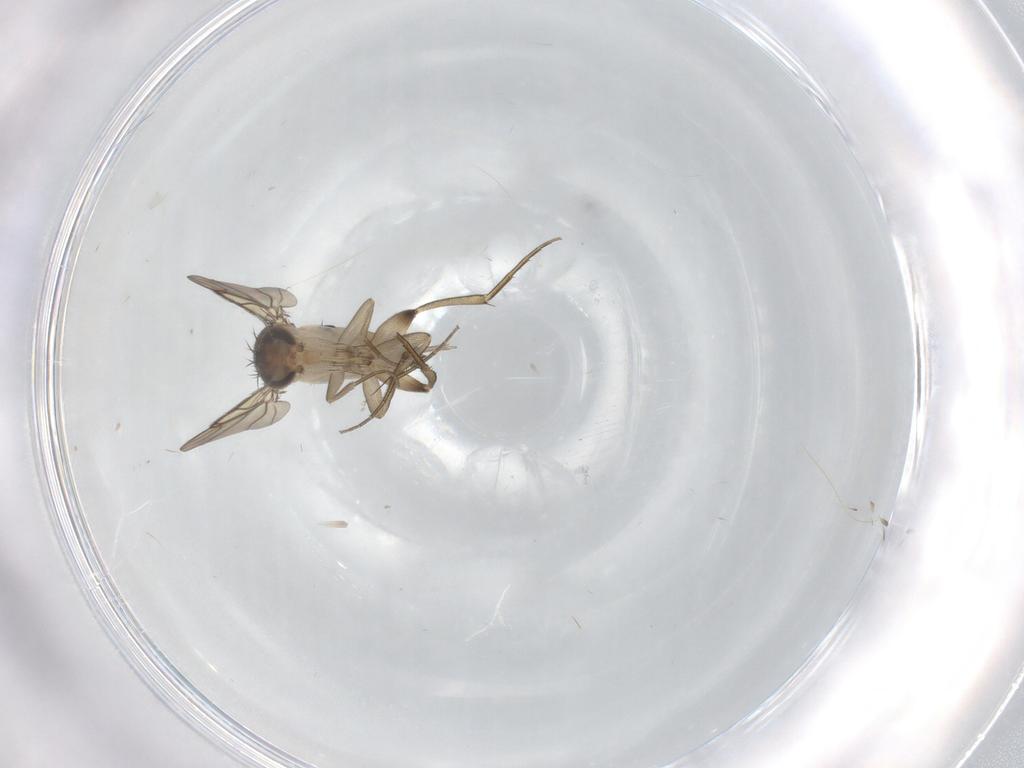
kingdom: Animalia
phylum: Arthropoda
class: Insecta
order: Diptera
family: Phoridae
